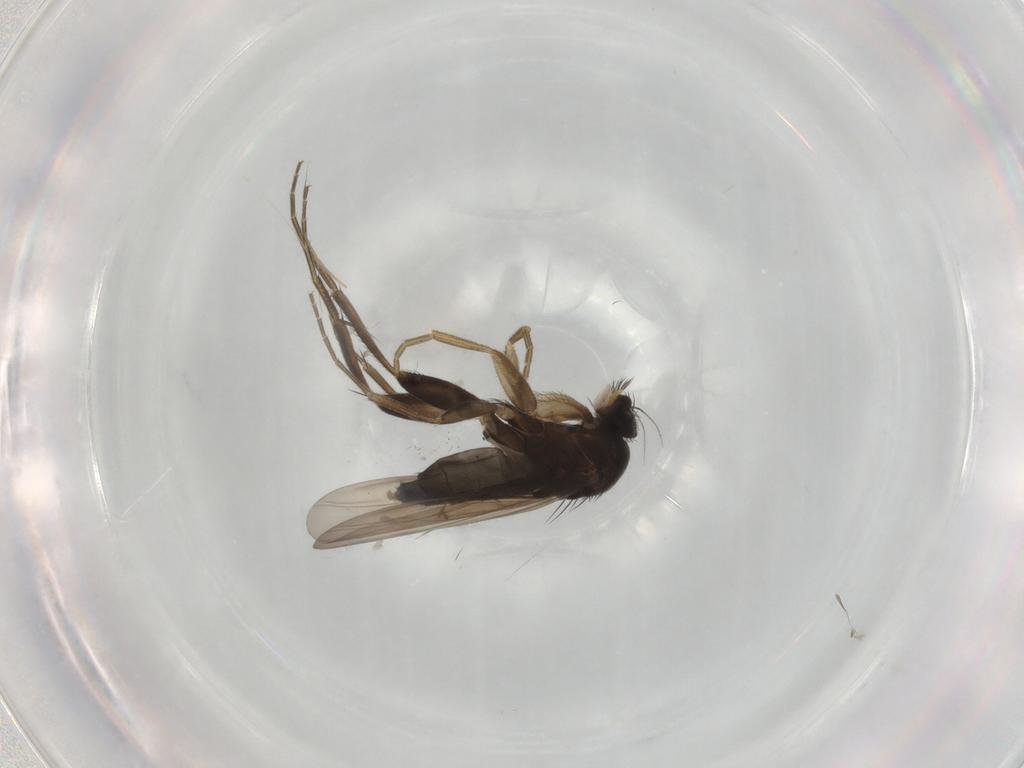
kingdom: Animalia
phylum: Arthropoda
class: Insecta
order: Diptera
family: Phoridae
